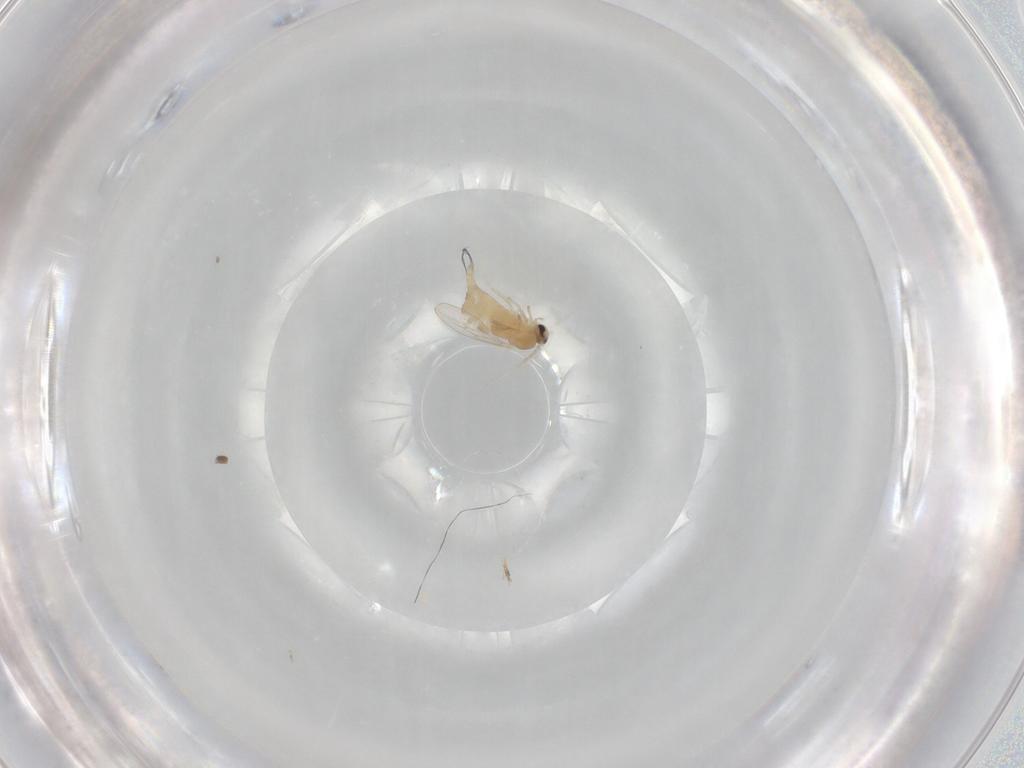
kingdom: Animalia
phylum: Arthropoda
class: Insecta
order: Diptera
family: Cecidomyiidae
